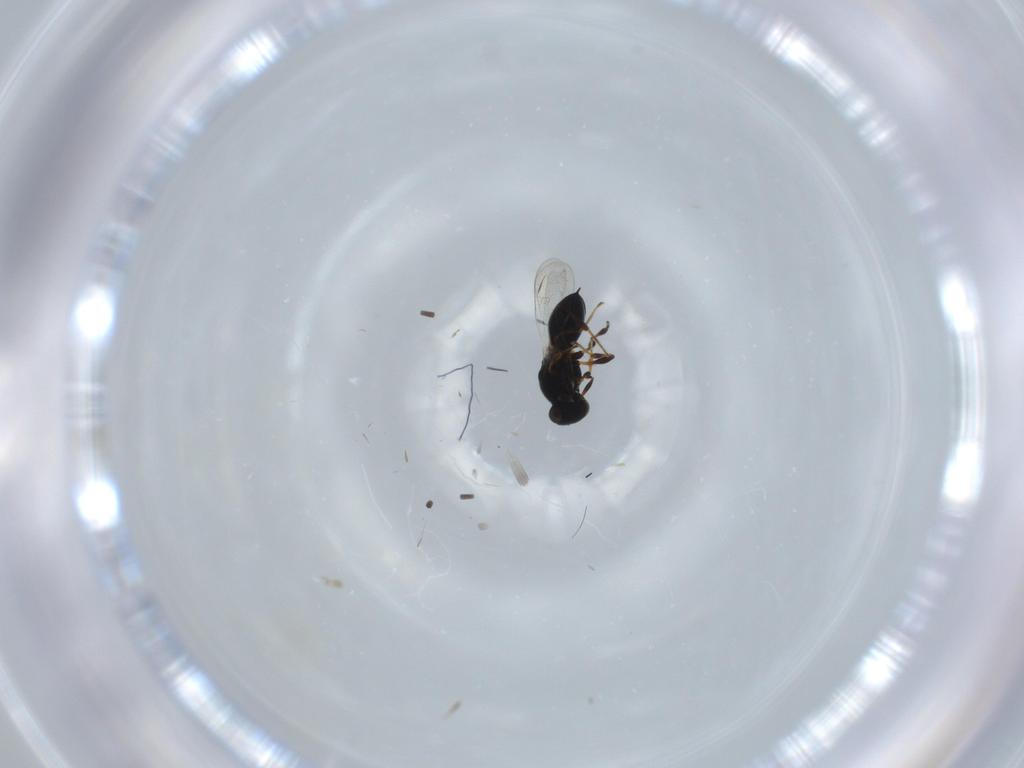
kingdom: Animalia
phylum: Arthropoda
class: Insecta
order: Hymenoptera
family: Platygastridae
